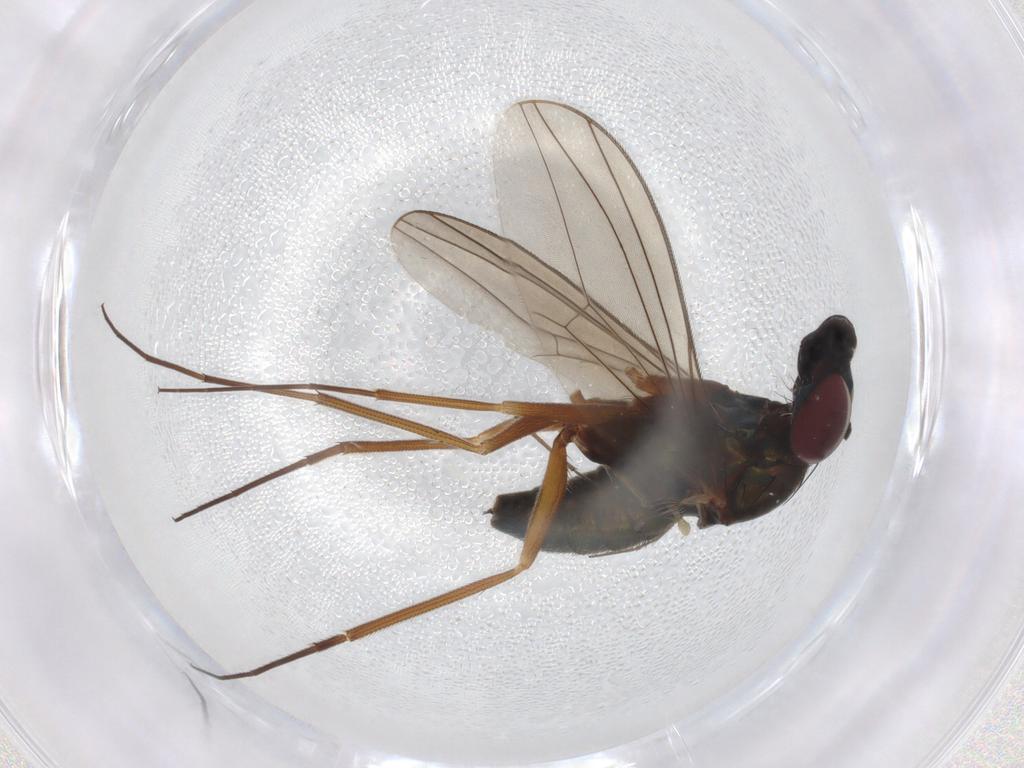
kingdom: Animalia
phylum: Arthropoda
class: Insecta
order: Diptera
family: Dolichopodidae
